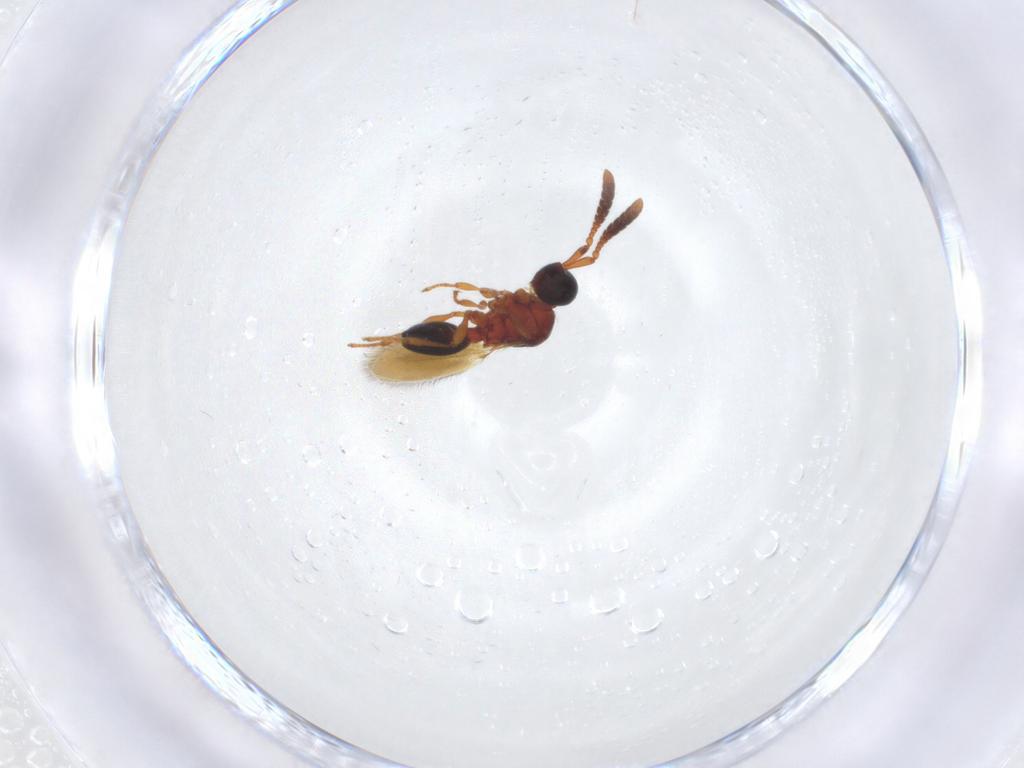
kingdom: Animalia
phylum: Arthropoda
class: Insecta
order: Hymenoptera
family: Diapriidae
